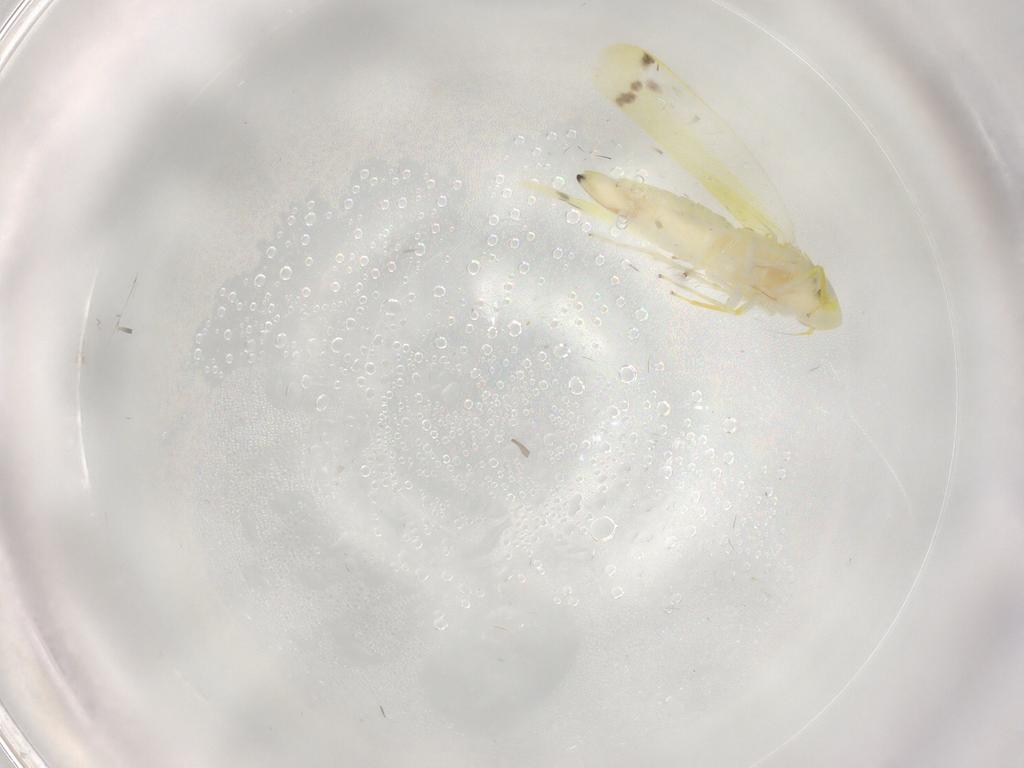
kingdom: Animalia
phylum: Arthropoda
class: Insecta
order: Hemiptera
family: Cicadellidae
